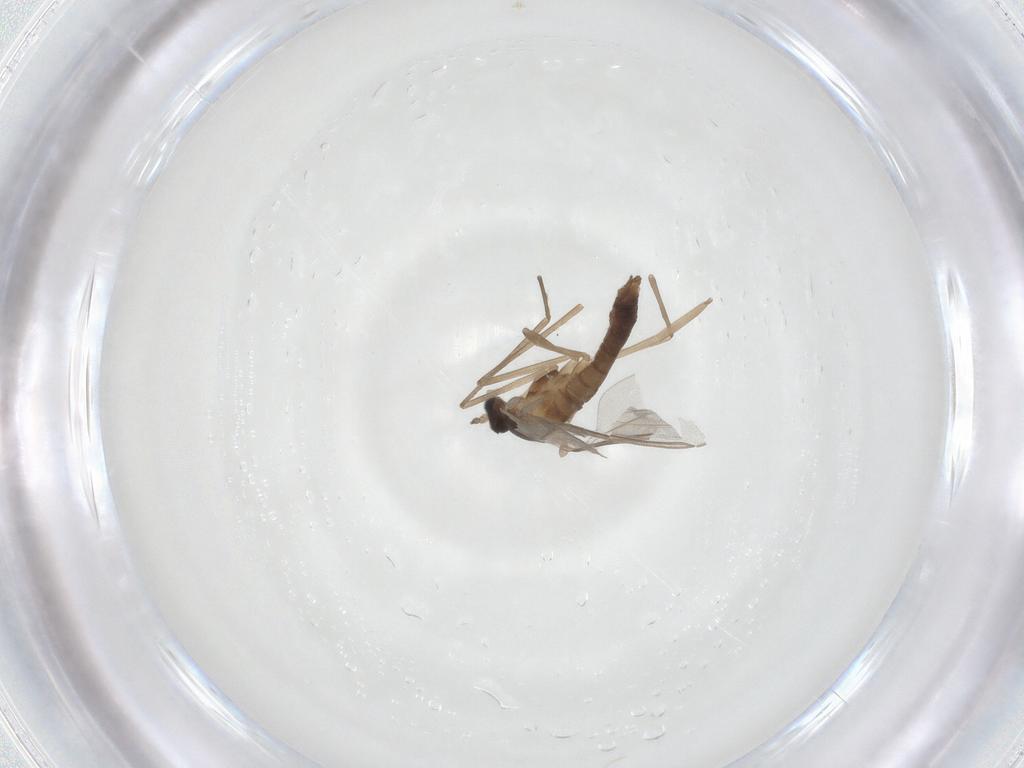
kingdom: Animalia
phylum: Arthropoda
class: Insecta
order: Diptera
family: Cecidomyiidae
